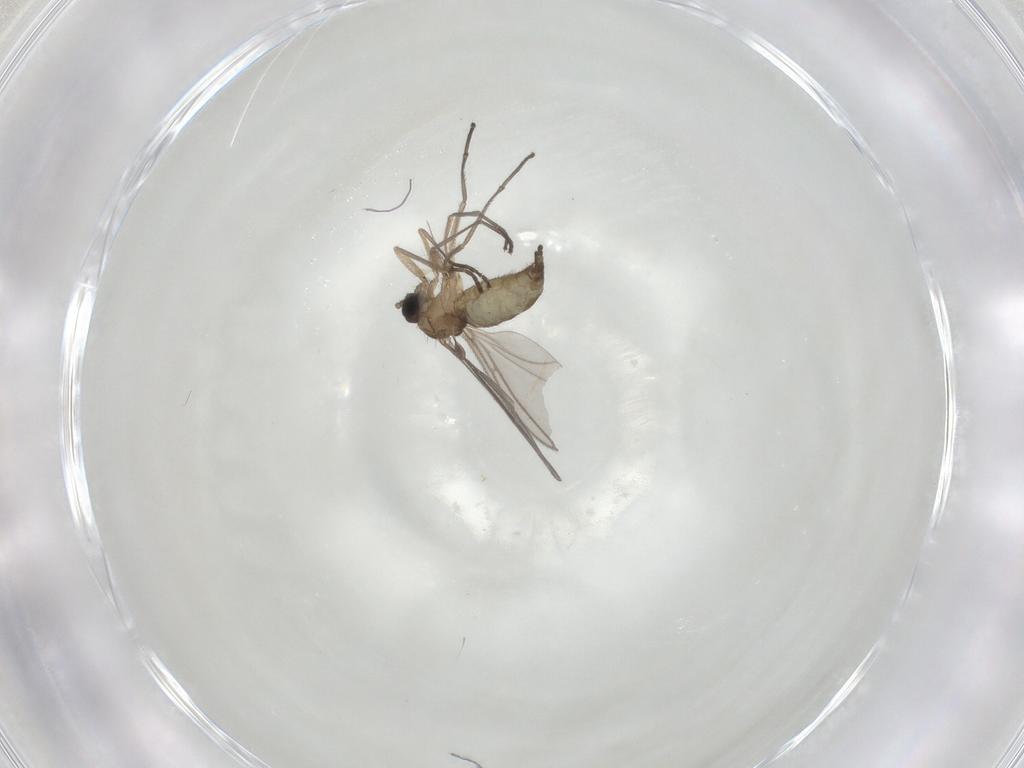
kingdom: Animalia
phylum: Arthropoda
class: Insecta
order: Diptera
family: Sciaridae
